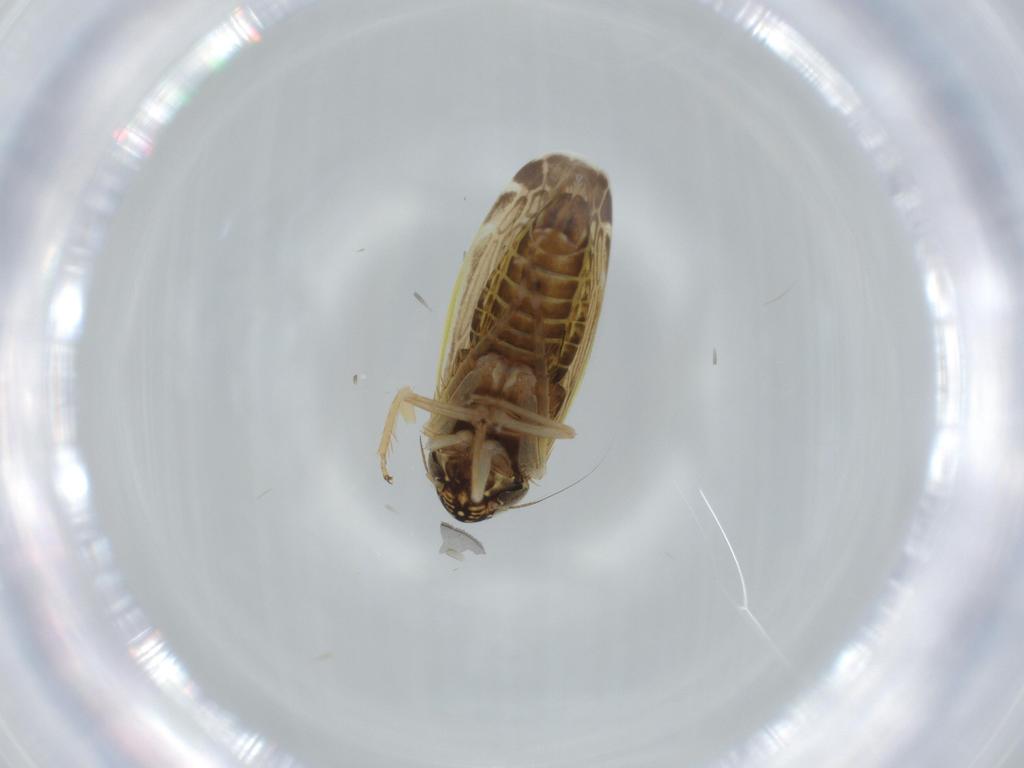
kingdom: Animalia
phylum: Arthropoda
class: Insecta
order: Hemiptera
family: Cicadellidae
